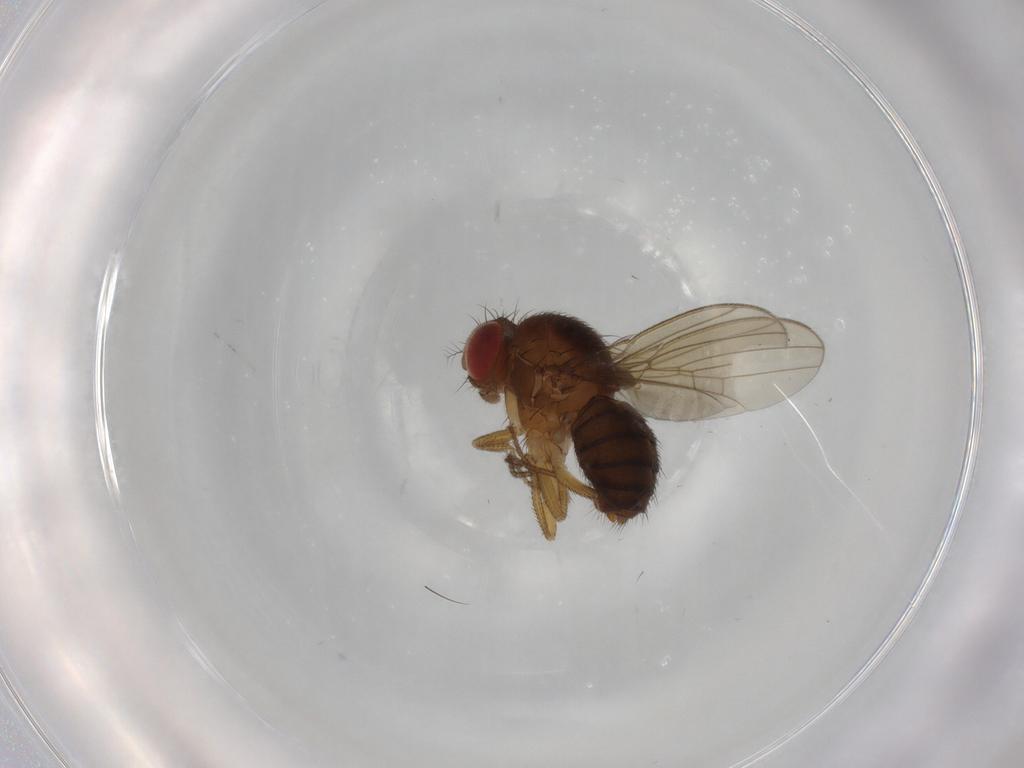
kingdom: Animalia
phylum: Arthropoda
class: Insecta
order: Diptera
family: Drosophilidae
